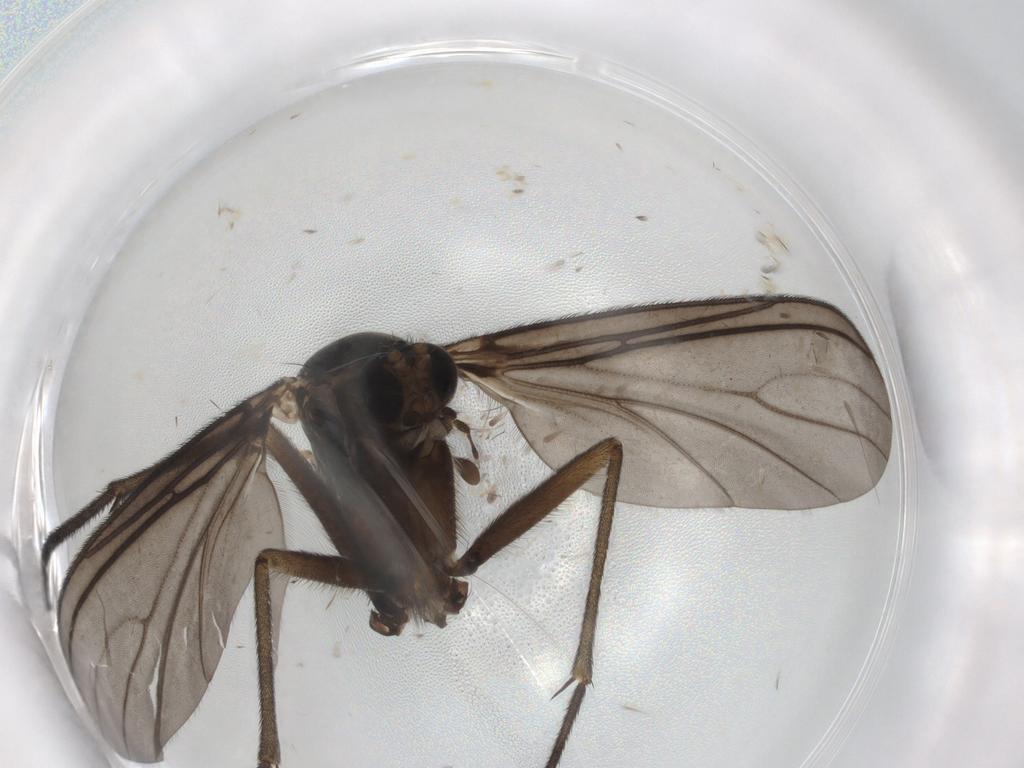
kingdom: Animalia
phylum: Arthropoda
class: Insecta
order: Diptera
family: Sciaridae
